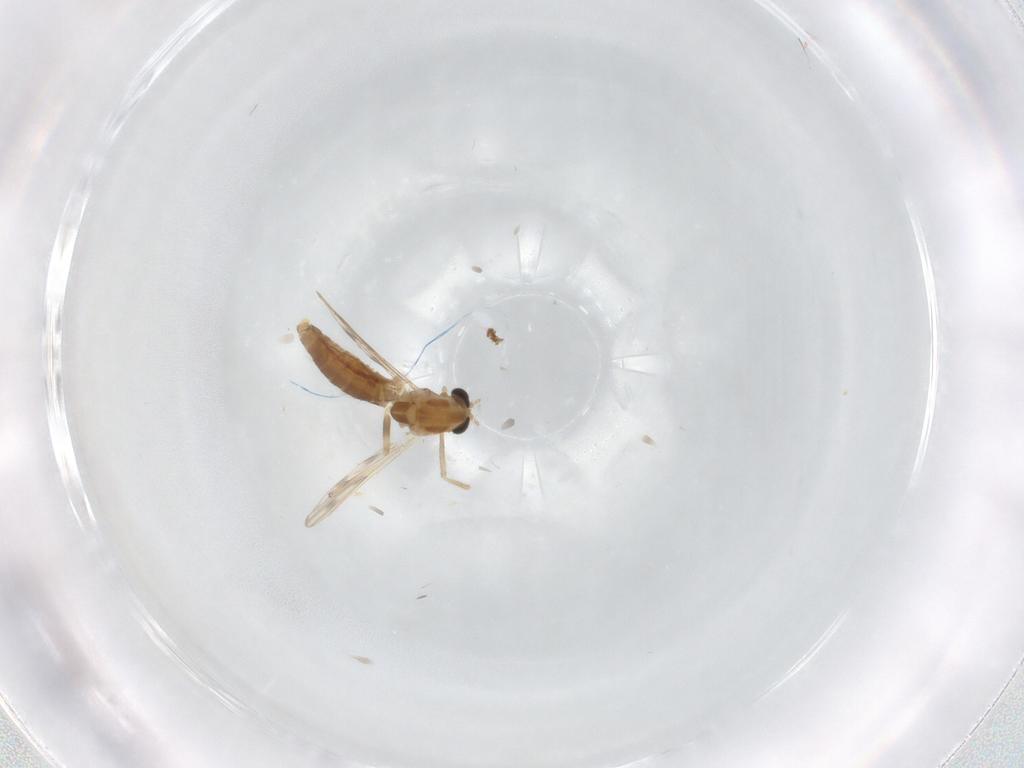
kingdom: Animalia
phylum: Arthropoda
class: Insecta
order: Diptera
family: Chironomidae
